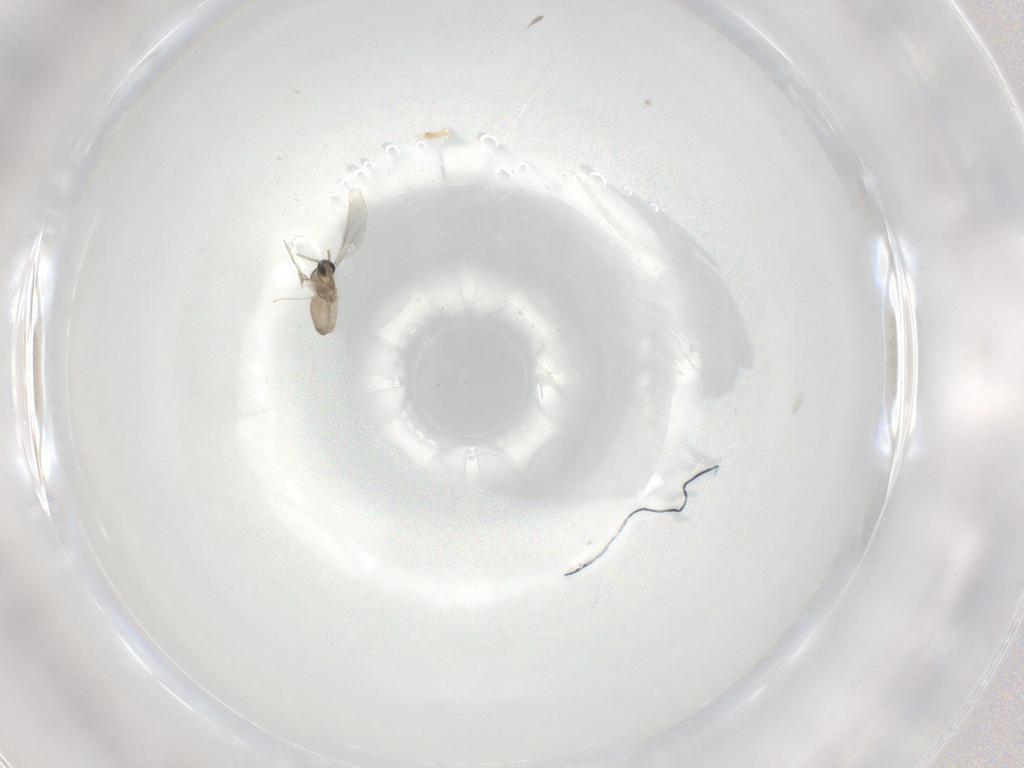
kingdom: Animalia
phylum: Arthropoda
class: Insecta
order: Diptera
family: Cecidomyiidae
